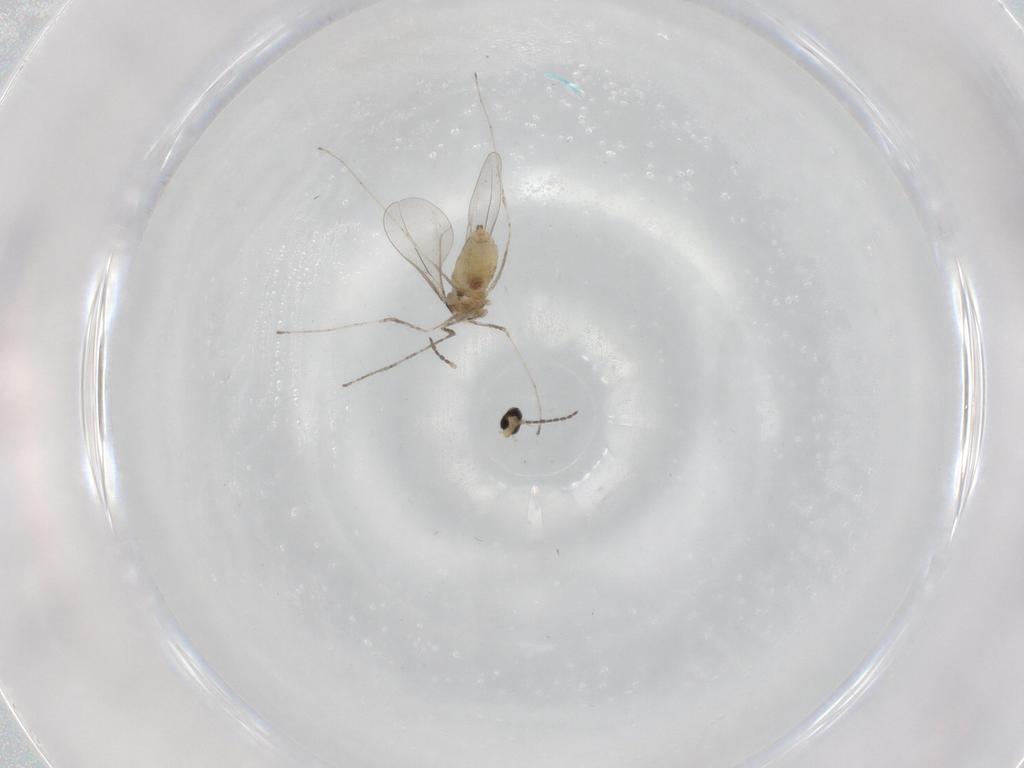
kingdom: Animalia
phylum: Arthropoda
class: Insecta
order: Diptera
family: Cecidomyiidae
